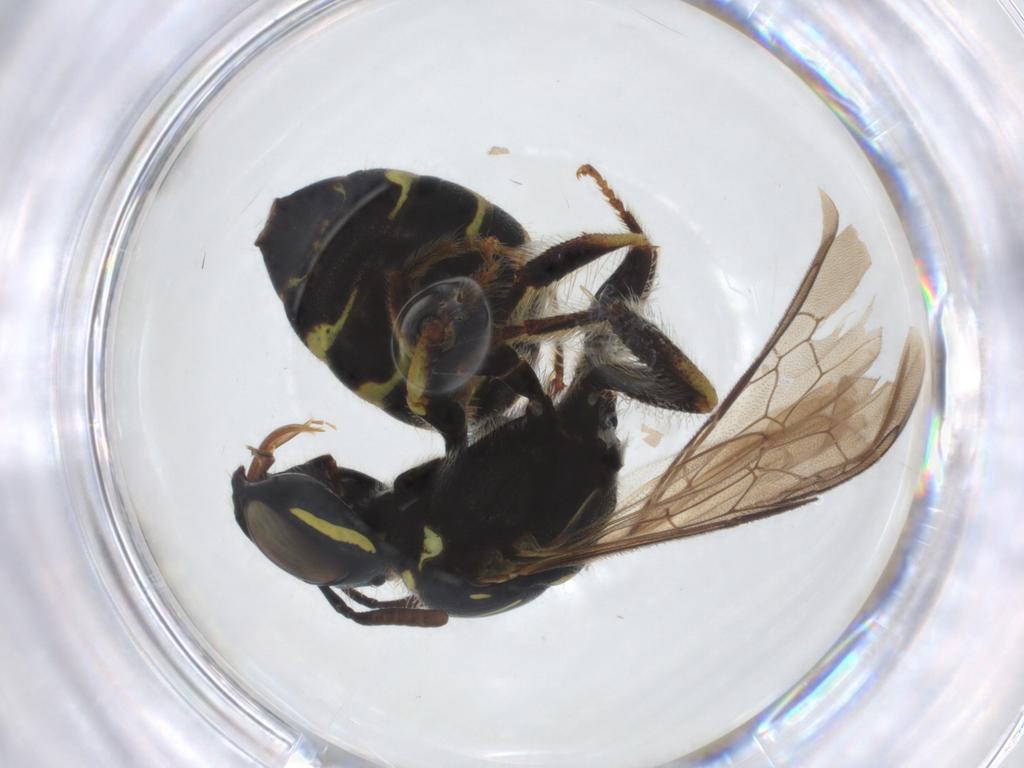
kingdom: Animalia
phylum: Arthropoda
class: Insecta
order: Hymenoptera
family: Apidae
